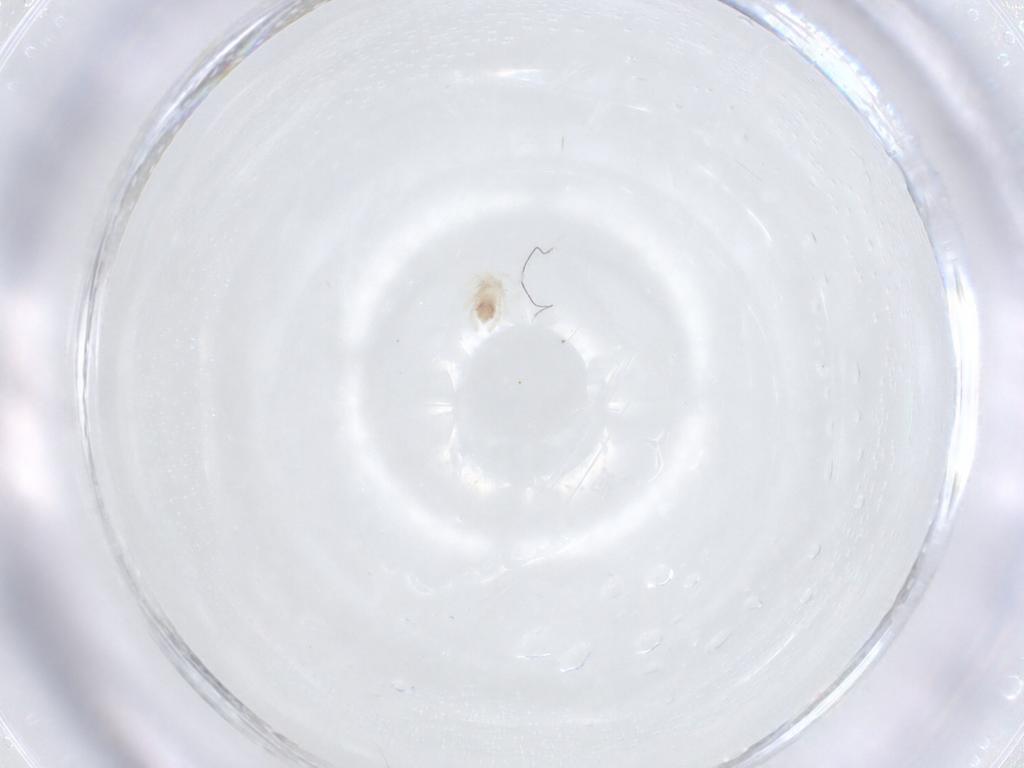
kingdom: Animalia
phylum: Arthropoda
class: Arachnida
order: Trombidiformes
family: Anystidae
